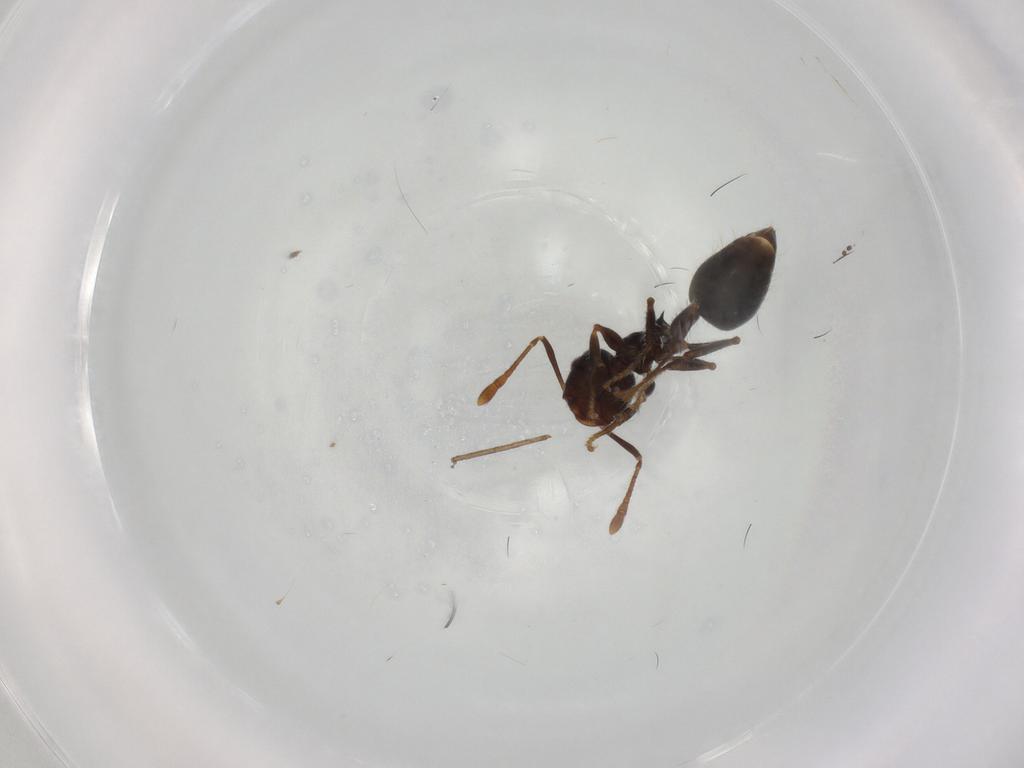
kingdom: Animalia
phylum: Arthropoda
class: Insecta
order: Hymenoptera
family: Formicidae
